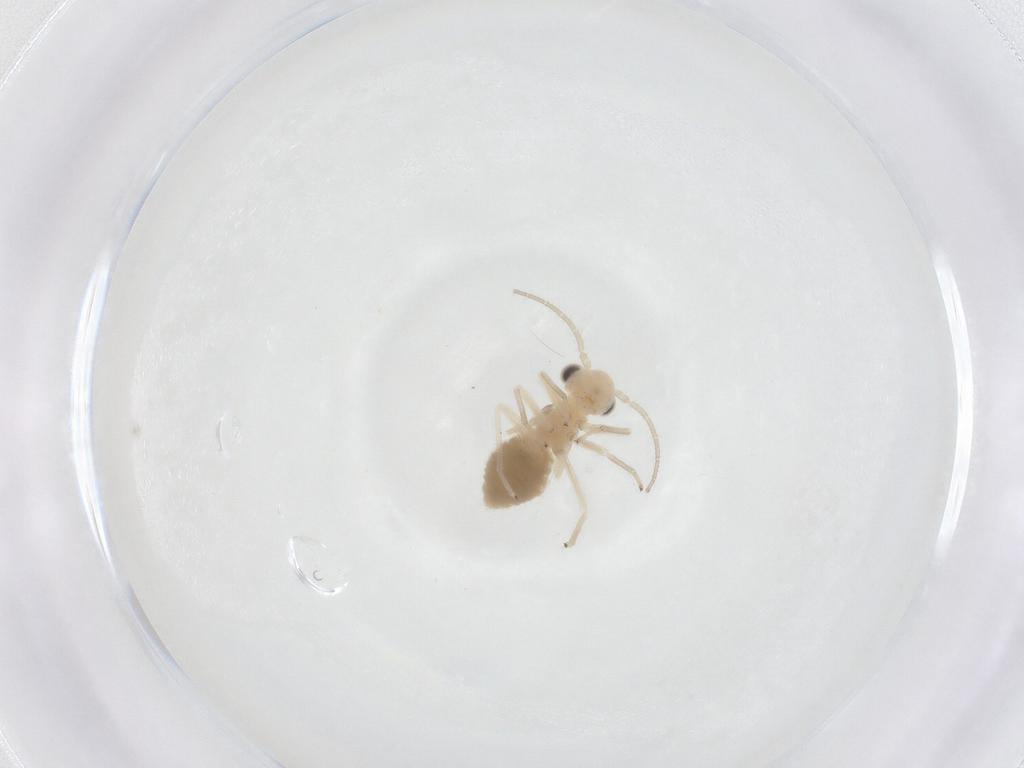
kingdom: Animalia
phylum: Arthropoda
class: Insecta
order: Psocodea
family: Caeciliusidae
